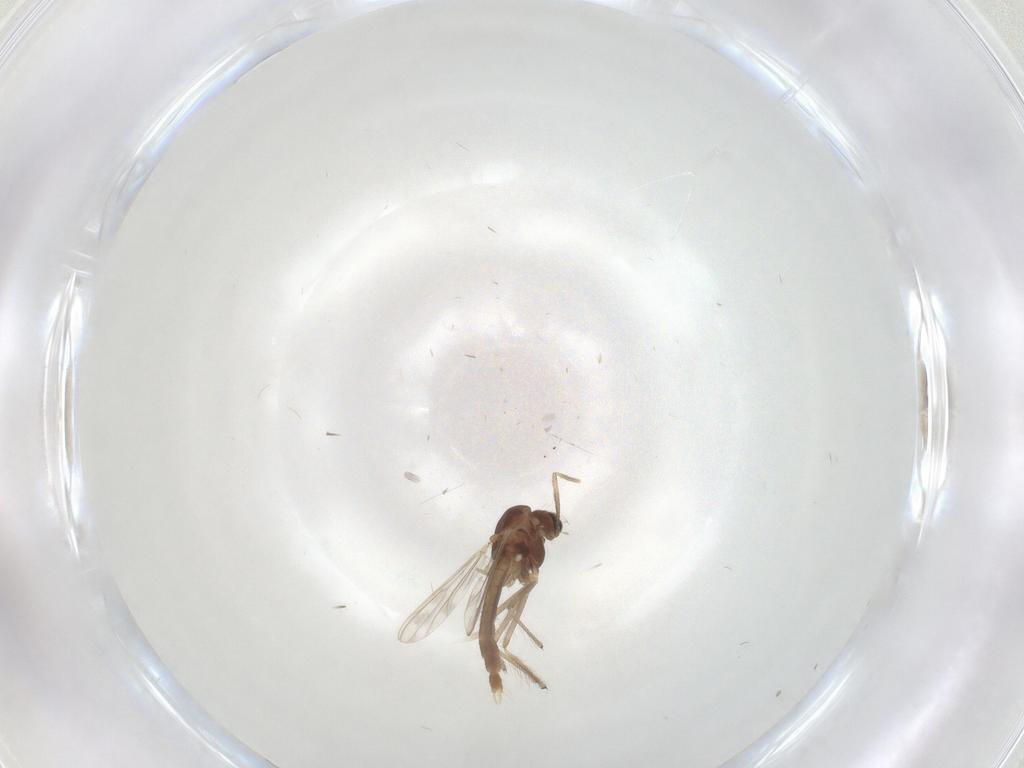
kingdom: Animalia
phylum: Arthropoda
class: Insecta
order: Diptera
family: Chironomidae
